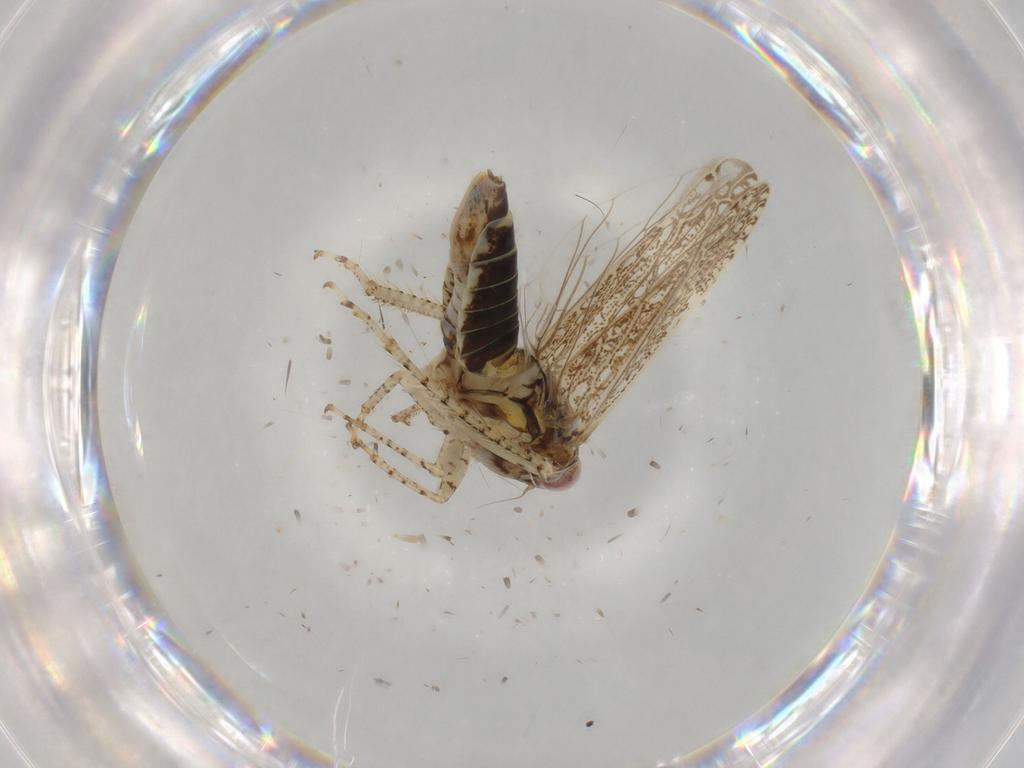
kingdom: Animalia
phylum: Arthropoda
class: Insecta
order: Hemiptera
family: Cicadellidae
